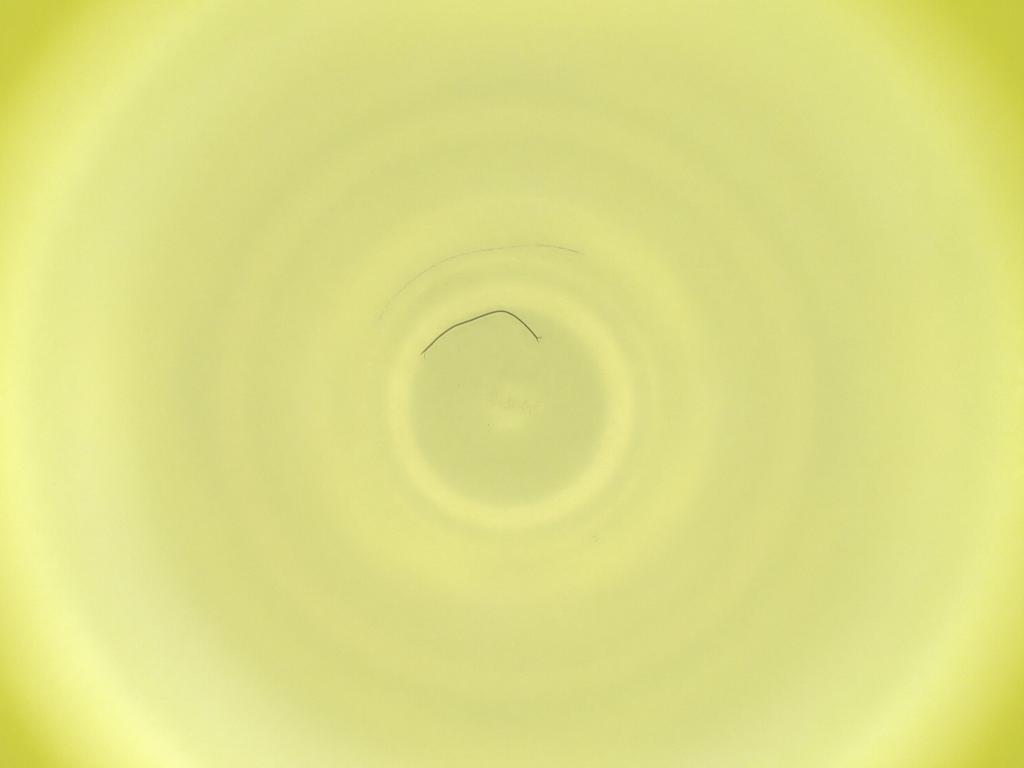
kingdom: Animalia
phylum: Arthropoda
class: Insecta
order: Diptera
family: Cecidomyiidae
